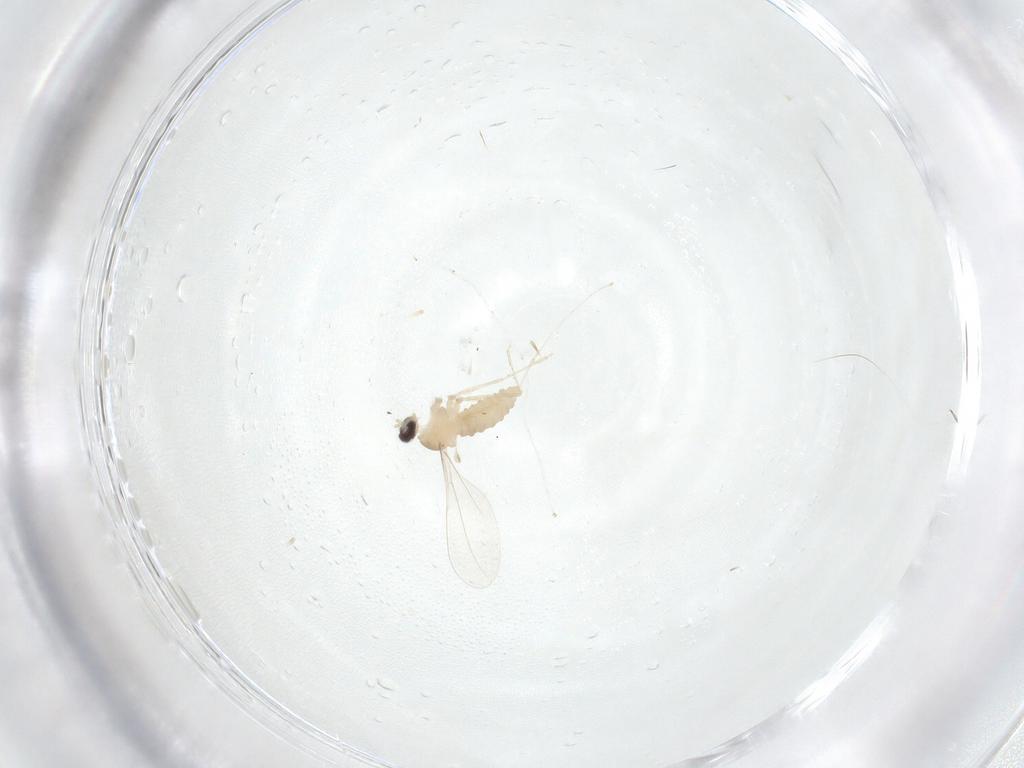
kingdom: Animalia
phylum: Arthropoda
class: Insecta
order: Diptera
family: Cecidomyiidae
